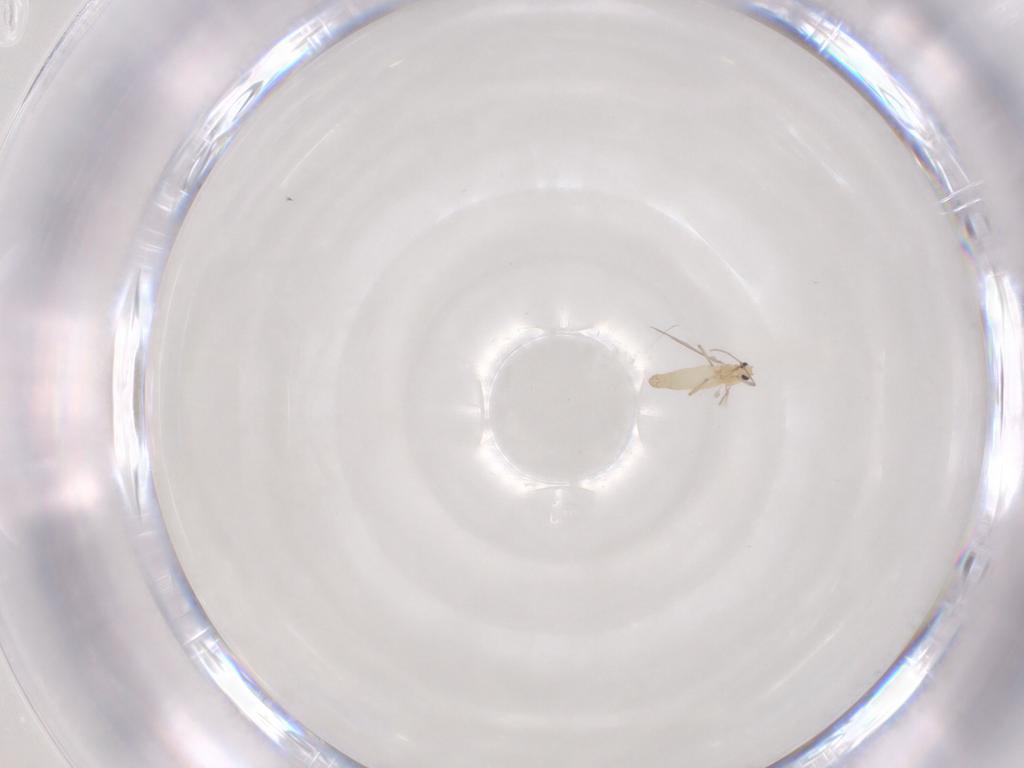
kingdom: Animalia
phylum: Arthropoda
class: Insecta
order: Diptera
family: Chironomidae
